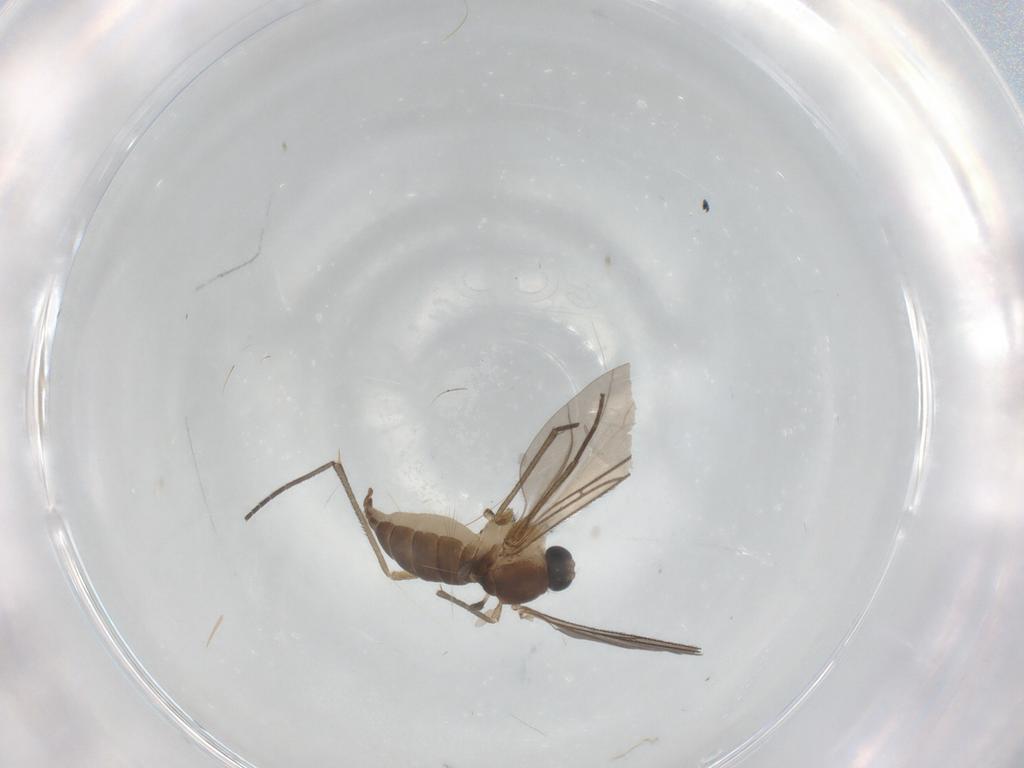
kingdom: Animalia
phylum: Arthropoda
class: Insecta
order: Diptera
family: Sciaridae
